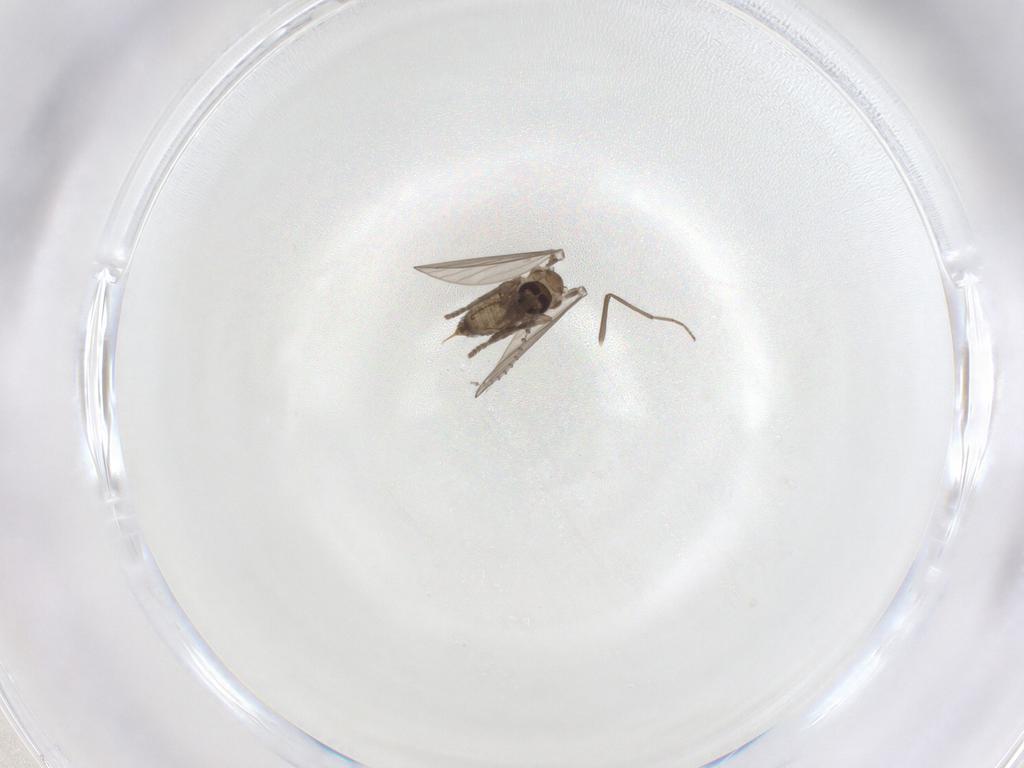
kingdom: Animalia
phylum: Arthropoda
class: Insecta
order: Diptera
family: Psychodidae
